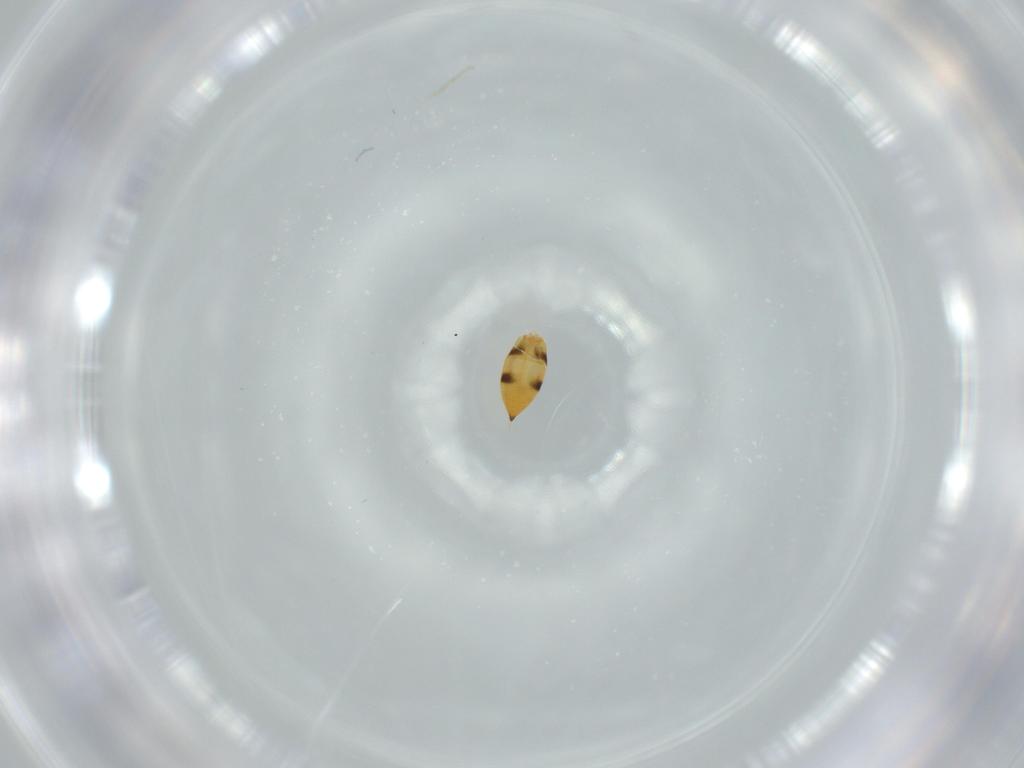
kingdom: Animalia
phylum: Arthropoda
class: Insecta
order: Hymenoptera
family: Scelionidae
